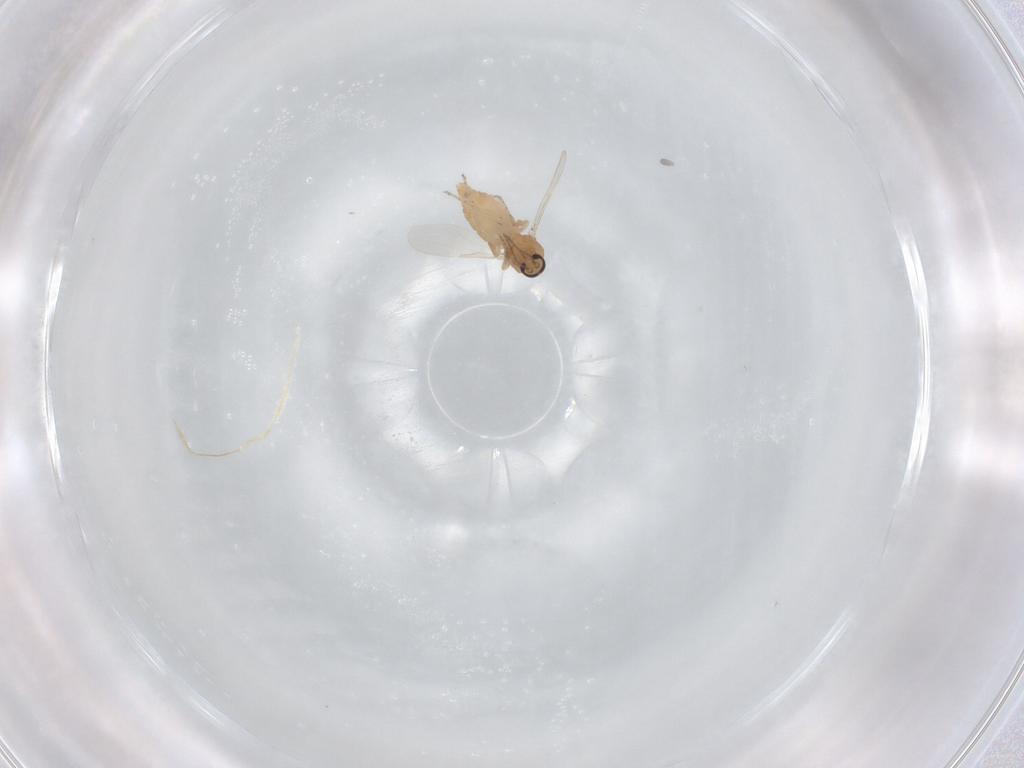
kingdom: Animalia
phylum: Arthropoda
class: Insecta
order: Diptera
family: Ceratopogonidae
